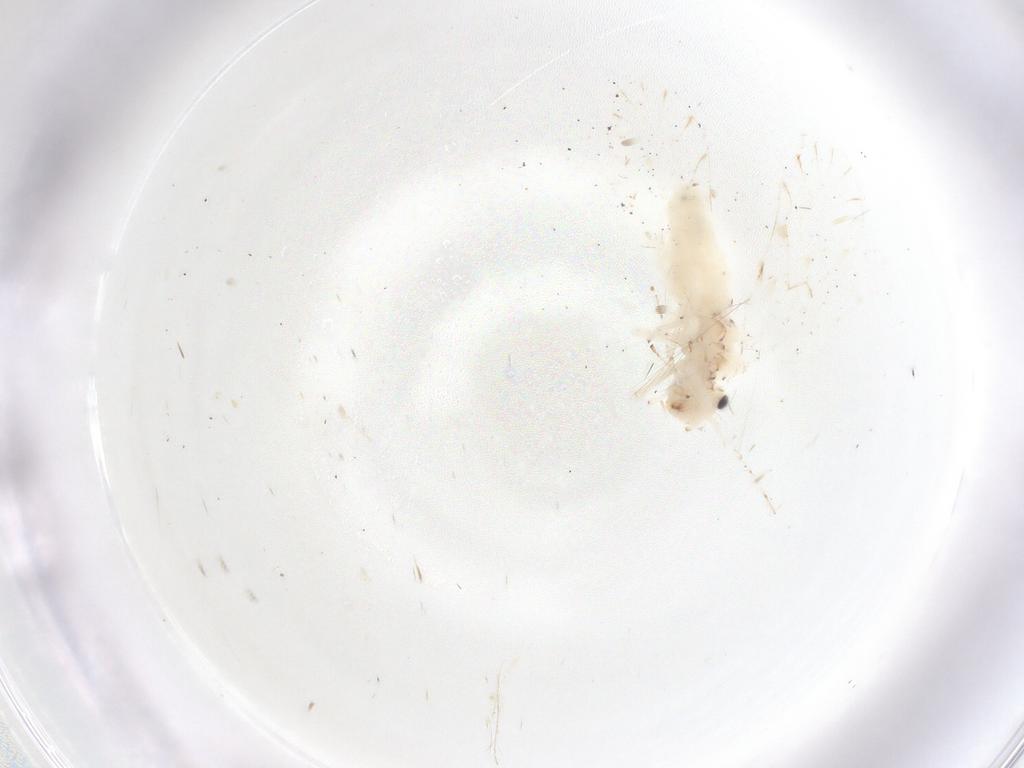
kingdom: Animalia
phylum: Arthropoda
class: Insecta
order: Psocodea
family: Trichopsocidae
